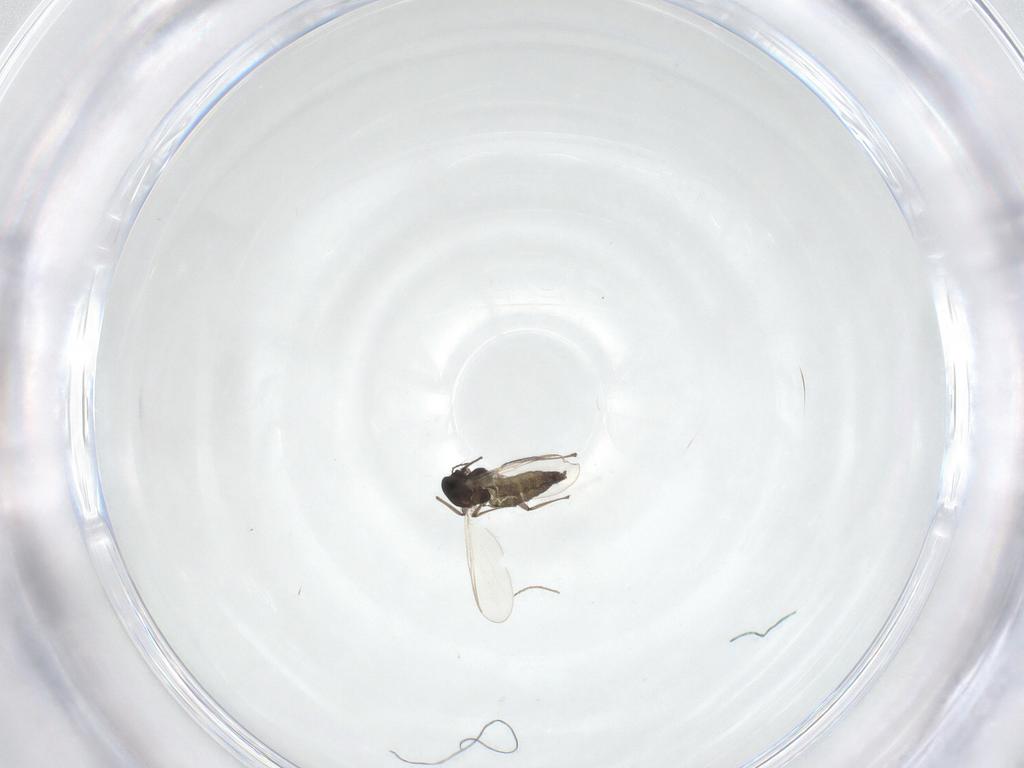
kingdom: Animalia
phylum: Arthropoda
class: Insecta
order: Diptera
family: Chironomidae
